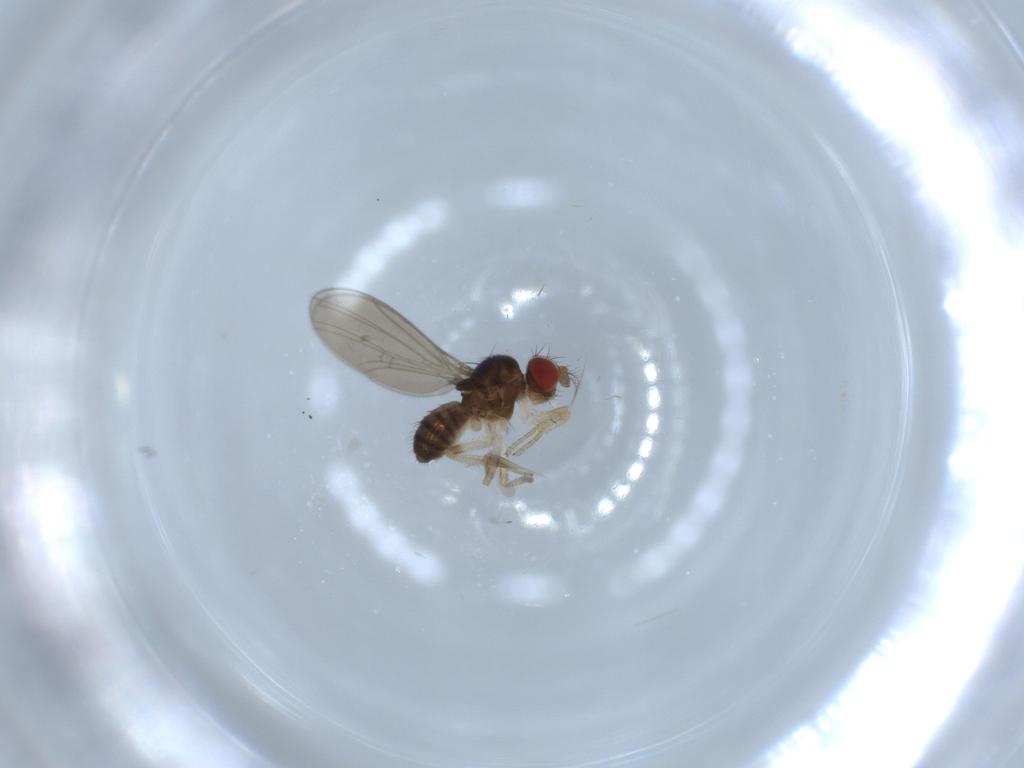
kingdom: Animalia
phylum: Arthropoda
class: Insecta
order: Diptera
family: Drosophilidae
